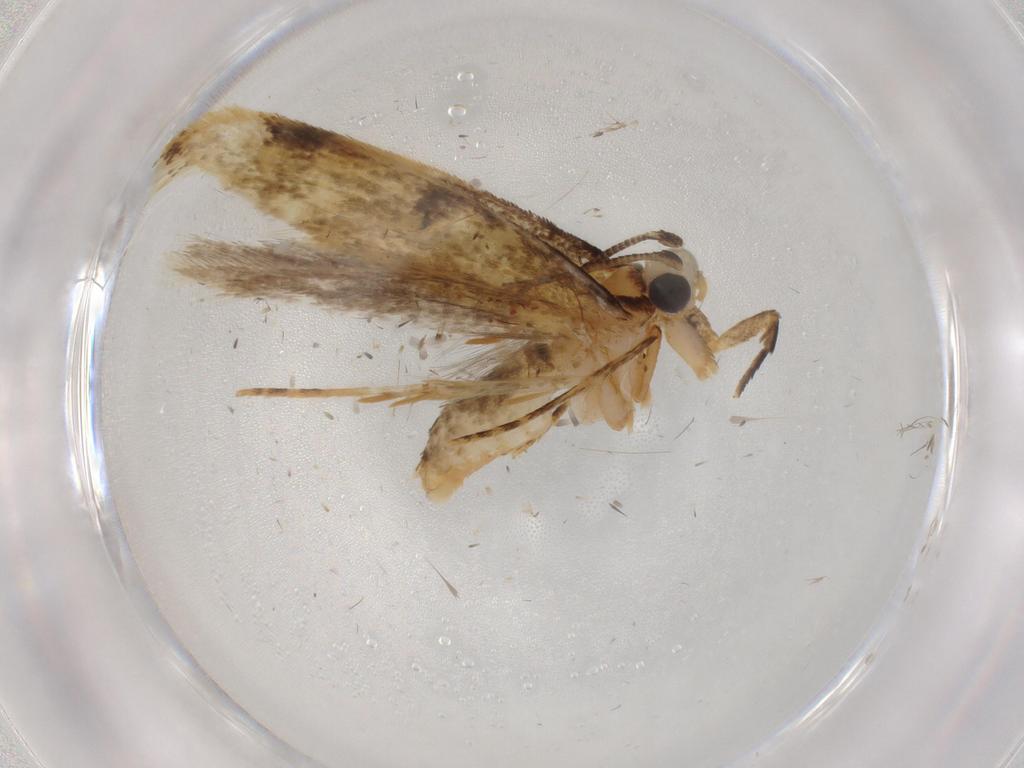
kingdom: Animalia
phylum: Arthropoda
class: Insecta
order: Lepidoptera
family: Tineidae
